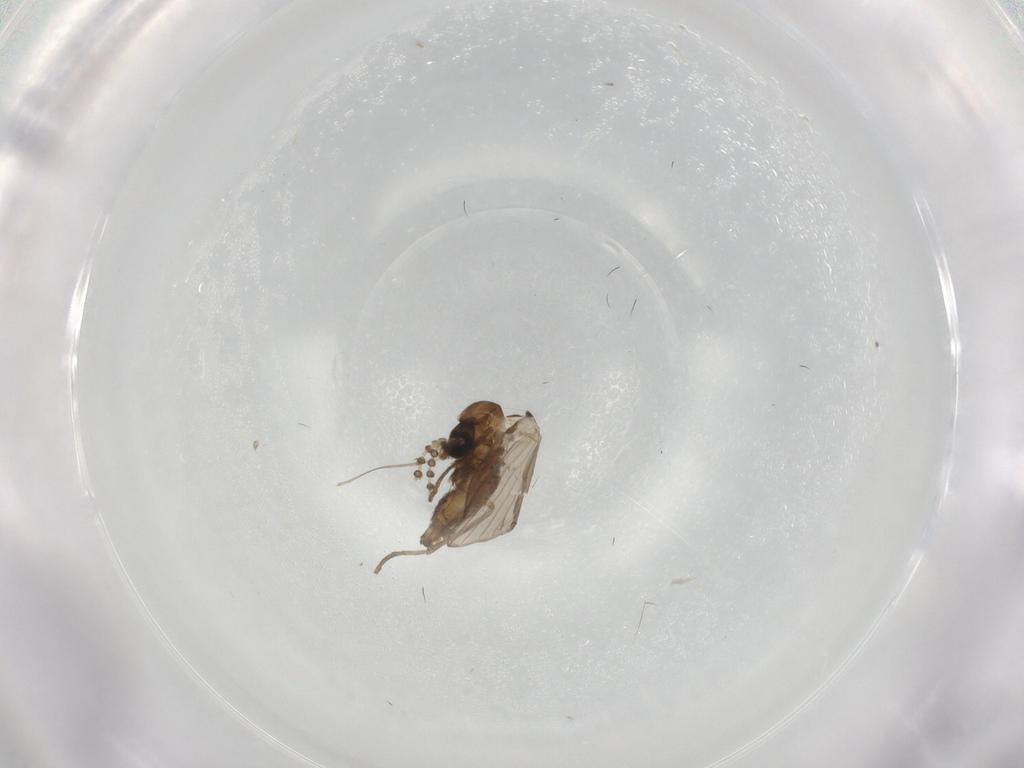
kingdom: Animalia
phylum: Arthropoda
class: Insecta
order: Diptera
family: Psychodidae
